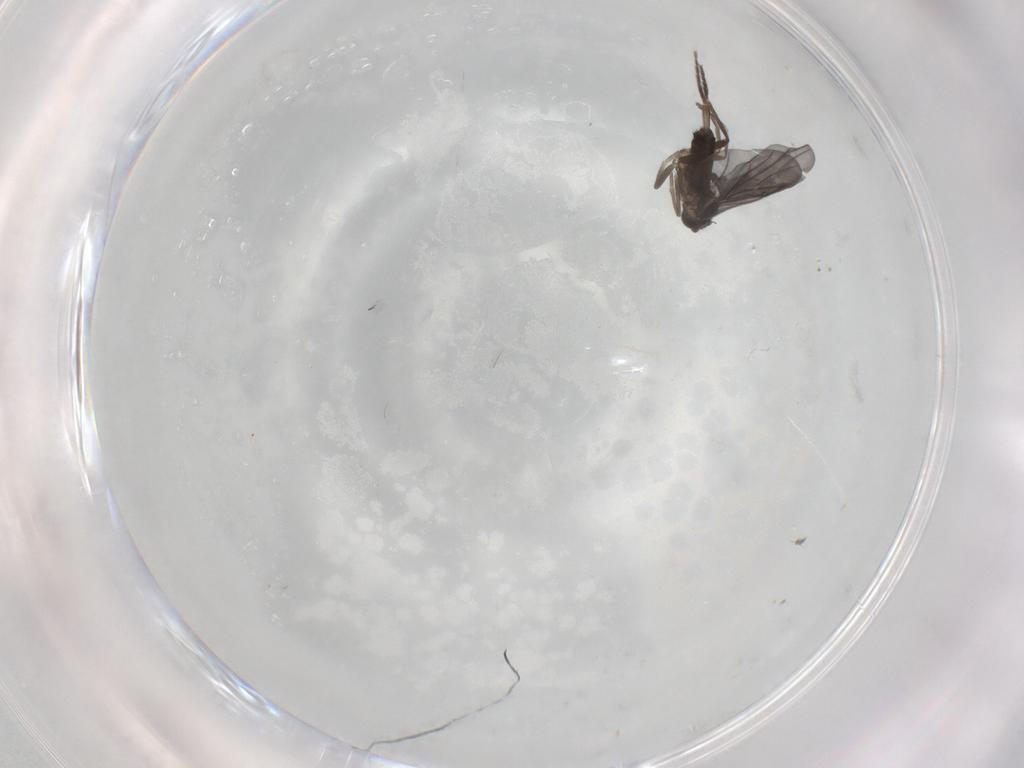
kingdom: Animalia
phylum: Arthropoda
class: Insecta
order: Diptera
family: Phoridae
